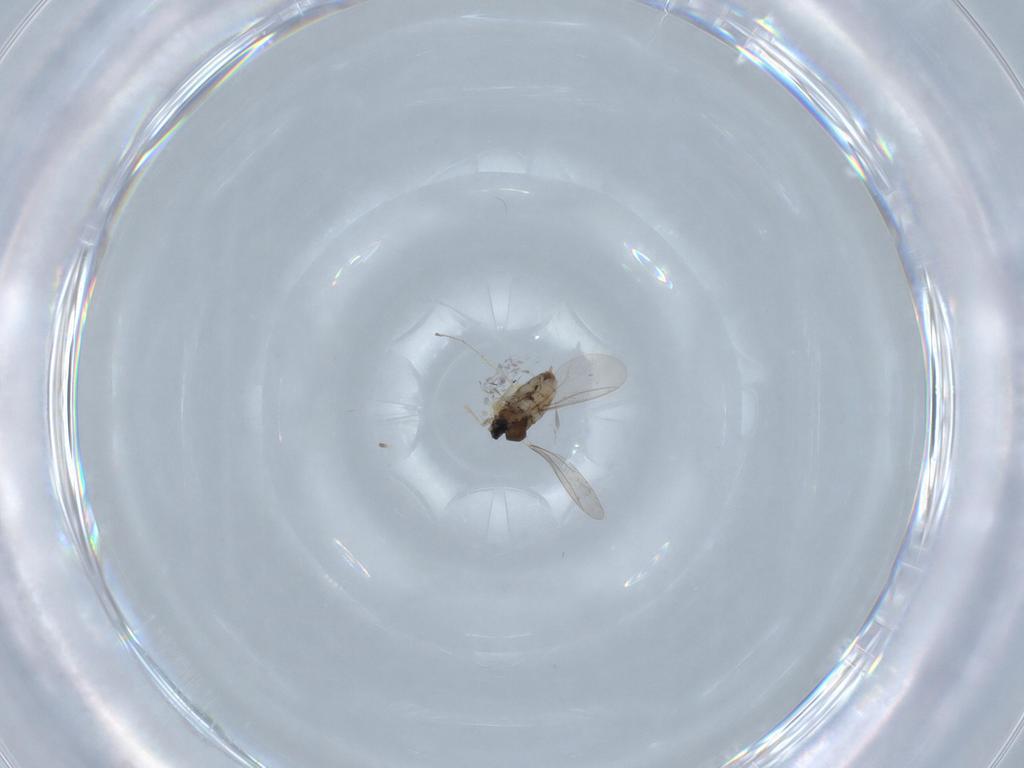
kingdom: Animalia
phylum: Arthropoda
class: Insecta
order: Diptera
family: Cecidomyiidae
